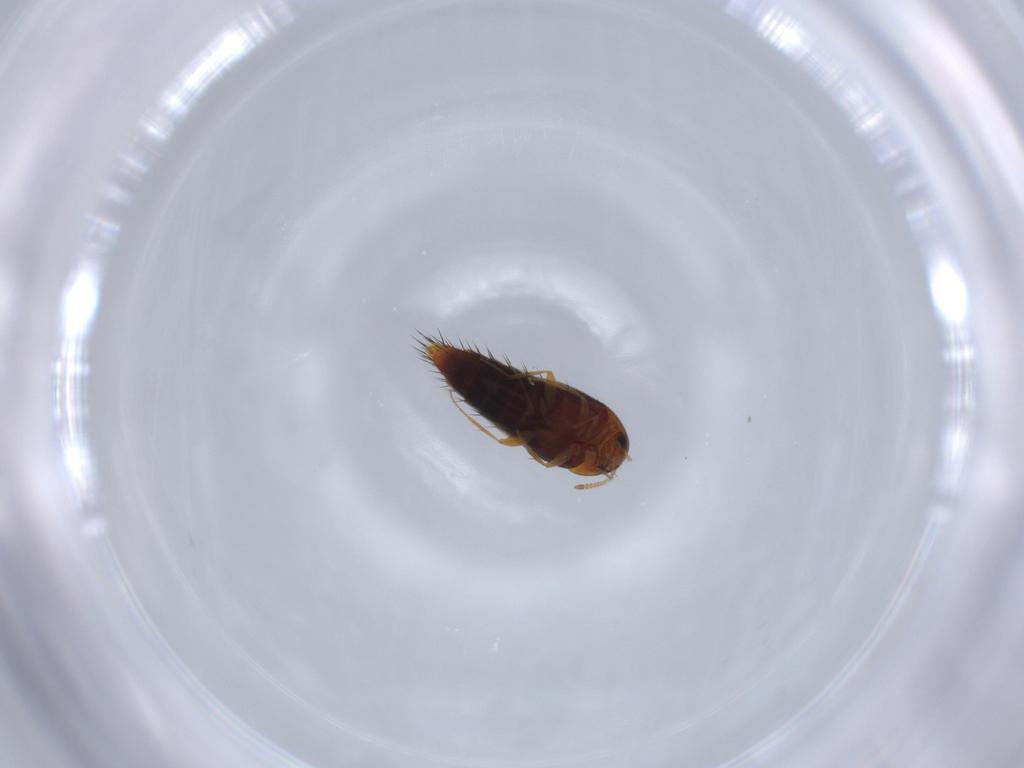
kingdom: Animalia
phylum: Arthropoda
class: Insecta
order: Coleoptera
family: Staphylinidae
